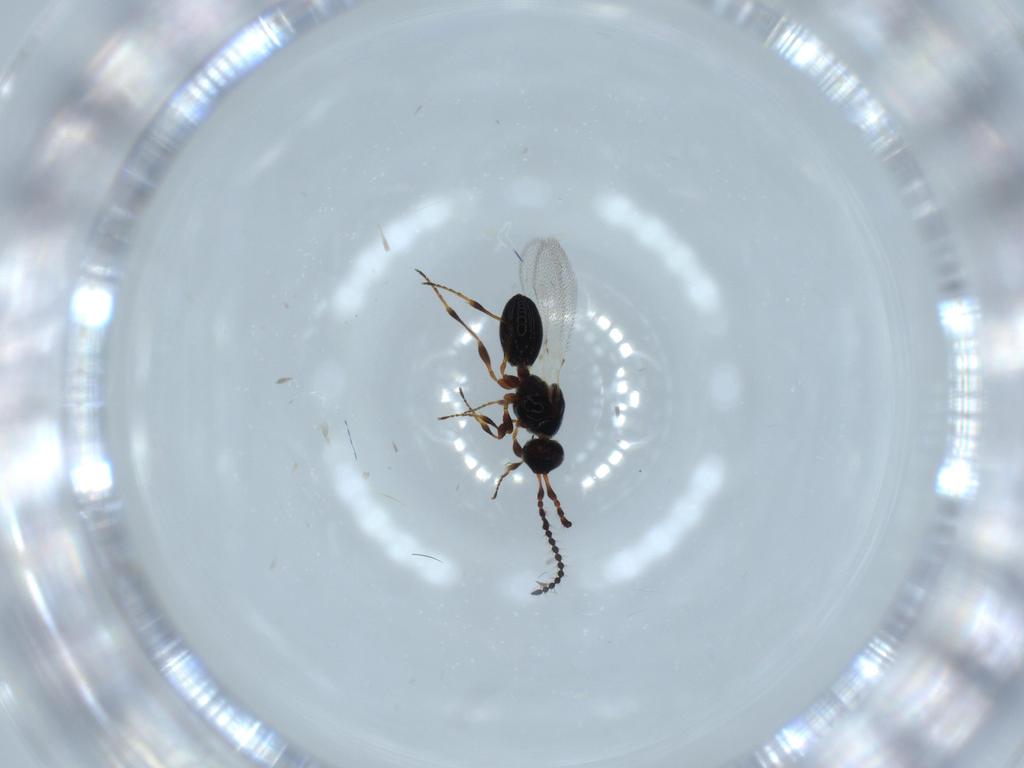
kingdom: Animalia
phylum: Arthropoda
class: Insecta
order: Hymenoptera
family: Diapriidae
